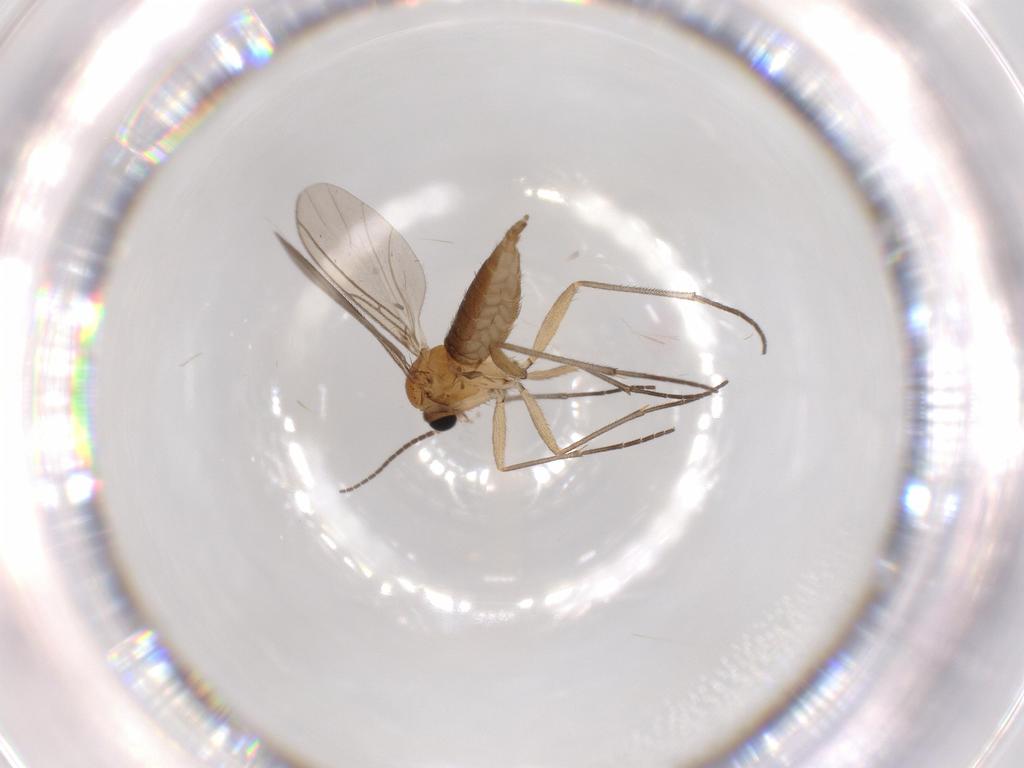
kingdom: Animalia
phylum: Arthropoda
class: Insecta
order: Diptera
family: Sciaridae
